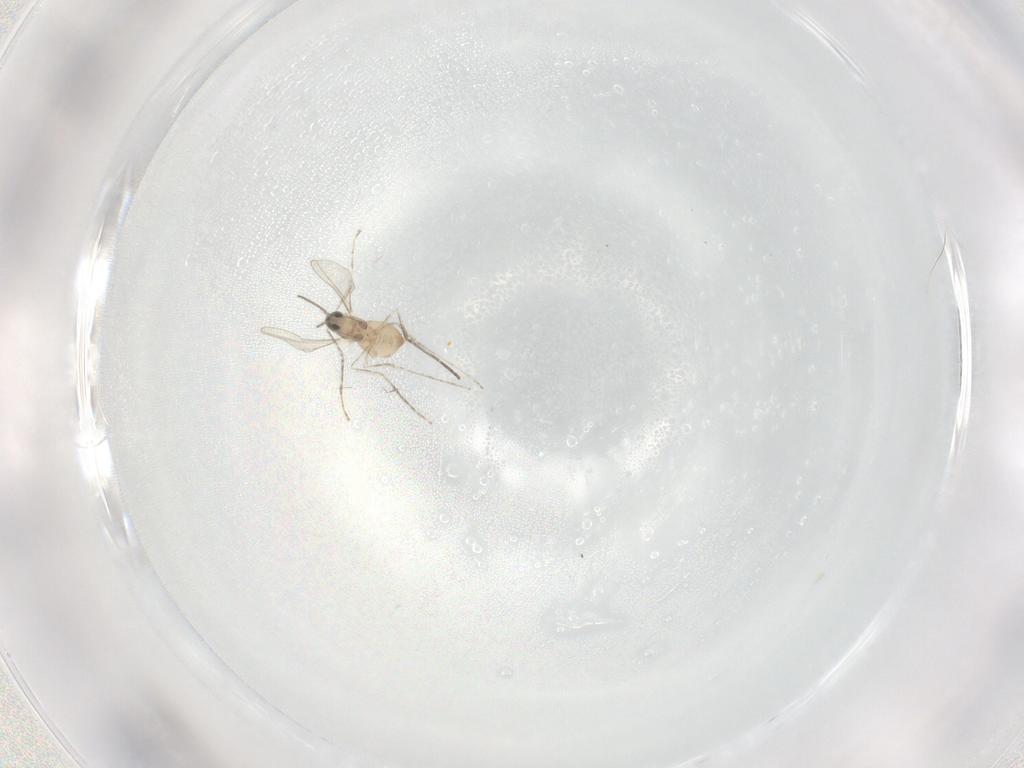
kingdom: Animalia
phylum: Arthropoda
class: Insecta
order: Diptera
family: Cecidomyiidae
